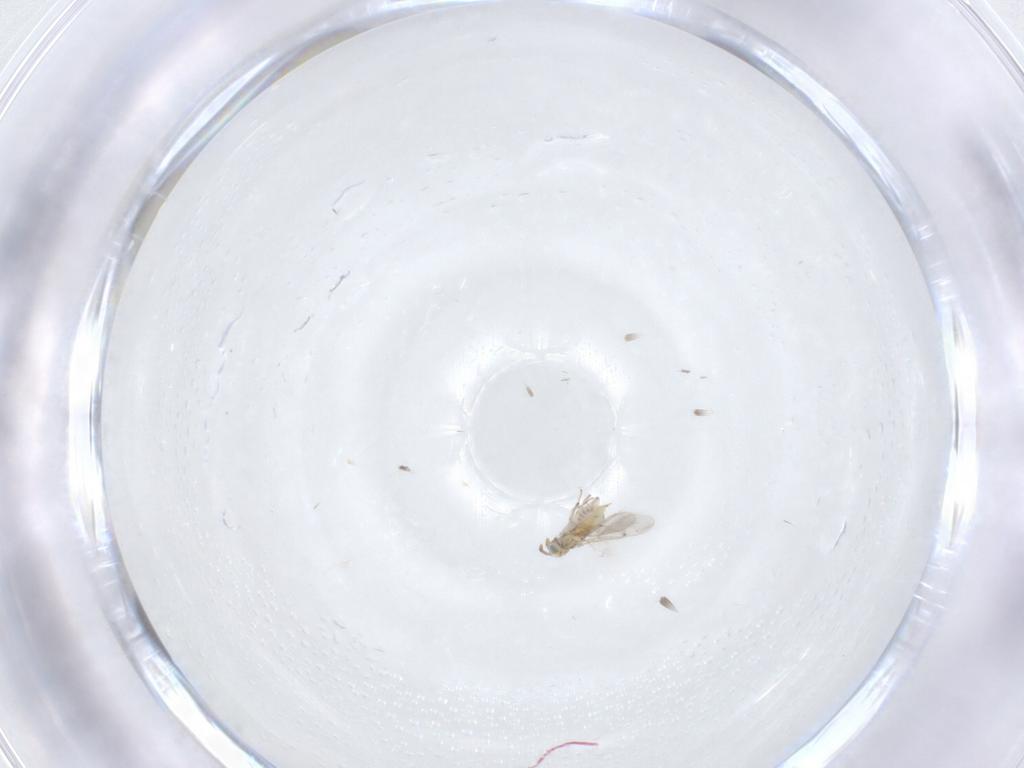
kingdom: Animalia
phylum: Arthropoda
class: Insecta
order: Hymenoptera
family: Aphelinidae
